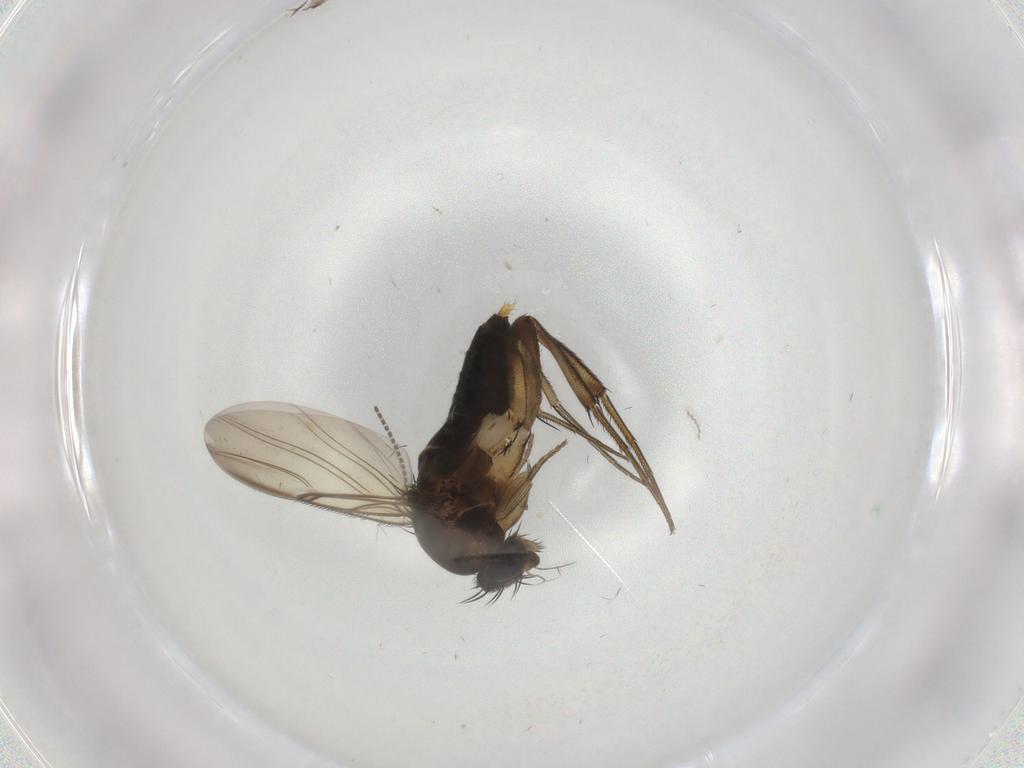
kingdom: Animalia
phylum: Arthropoda
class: Insecta
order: Diptera
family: Phoridae
